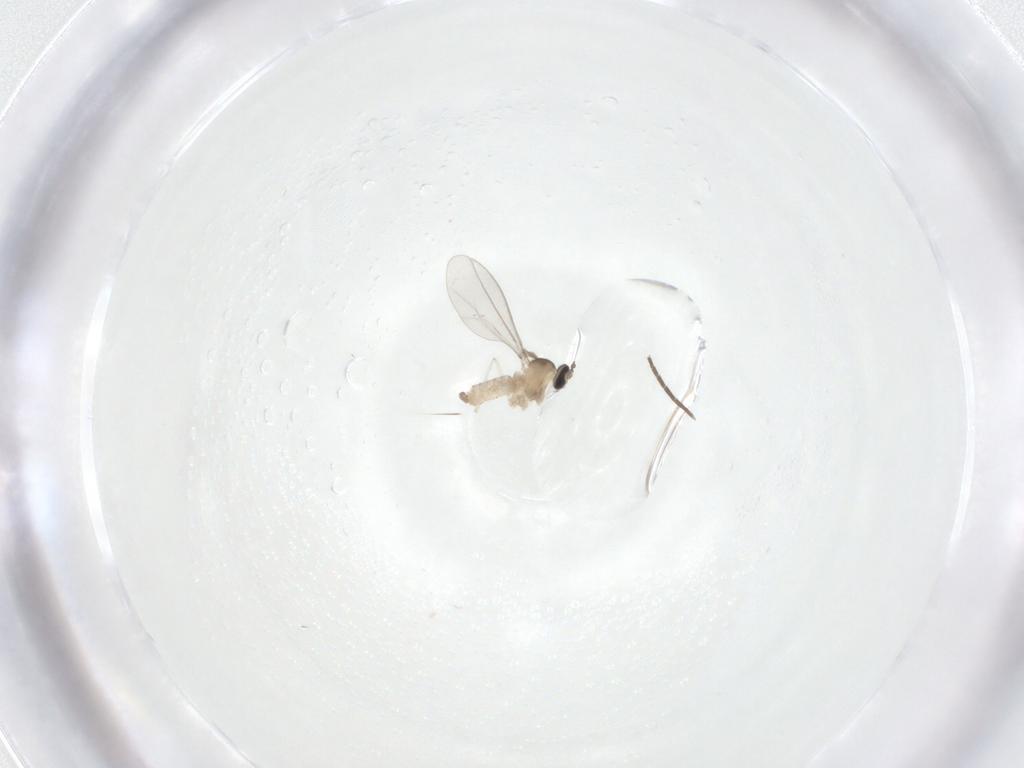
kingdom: Animalia
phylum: Arthropoda
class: Insecta
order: Diptera
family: Cecidomyiidae
